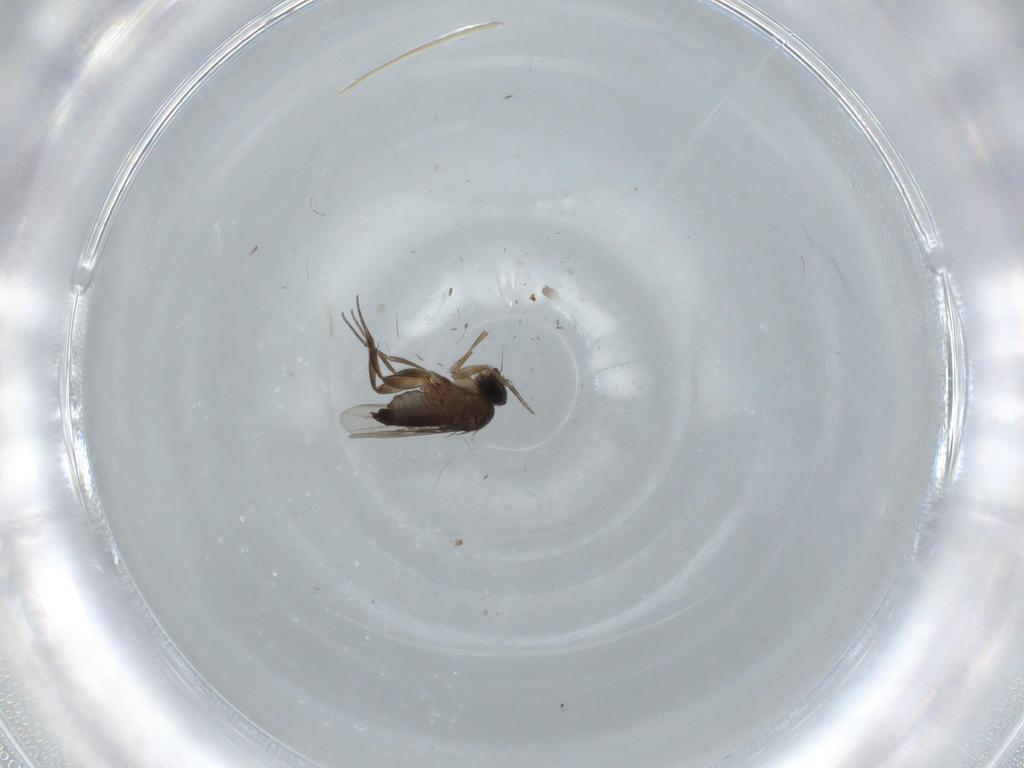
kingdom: Animalia
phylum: Arthropoda
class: Insecta
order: Diptera
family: Phoridae
